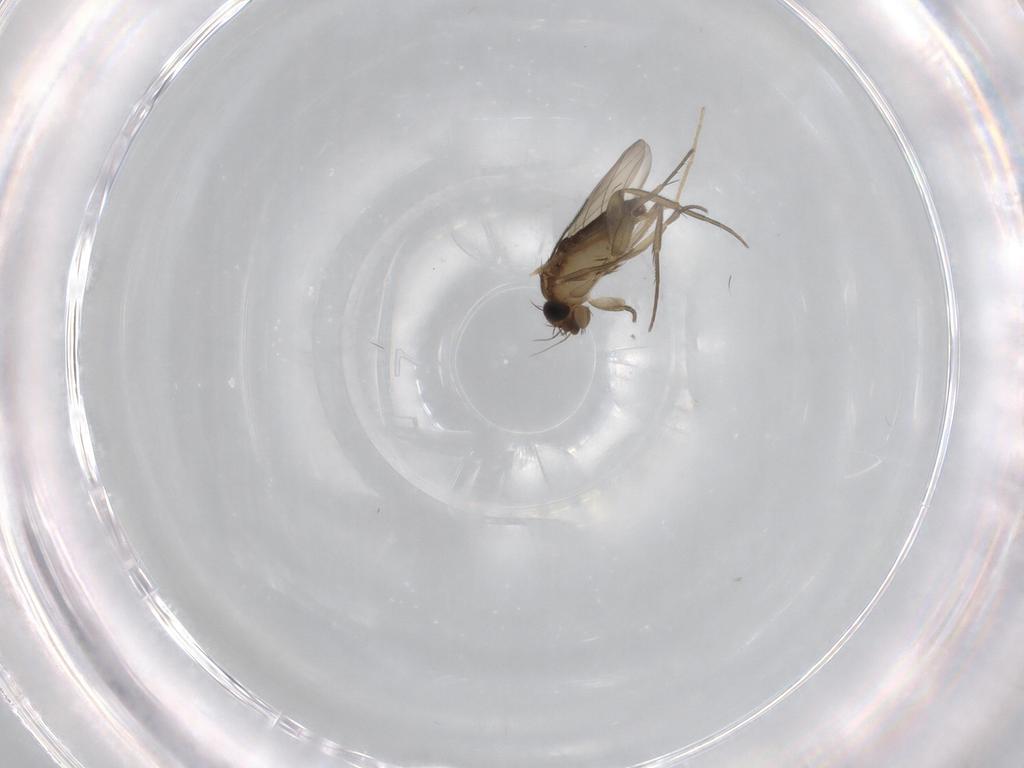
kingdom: Animalia
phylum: Arthropoda
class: Insecta
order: Diptera
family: Phoridae
